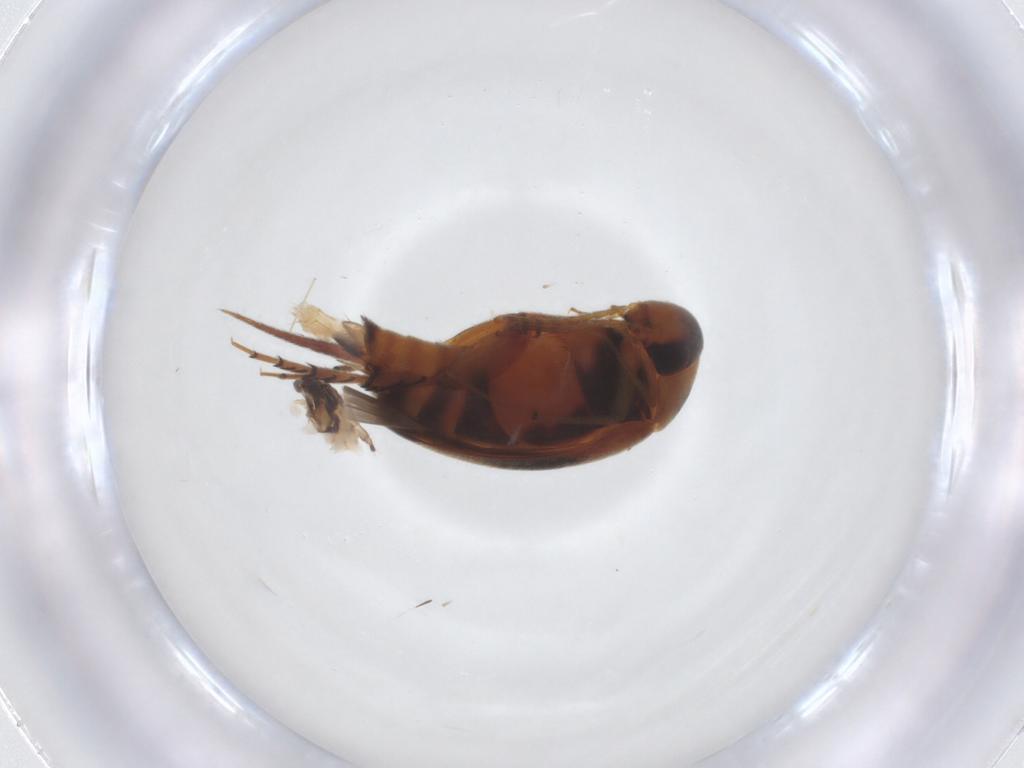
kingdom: Animalia
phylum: Arthropoda
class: Insecta
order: Coleoptera
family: Mordellidae
